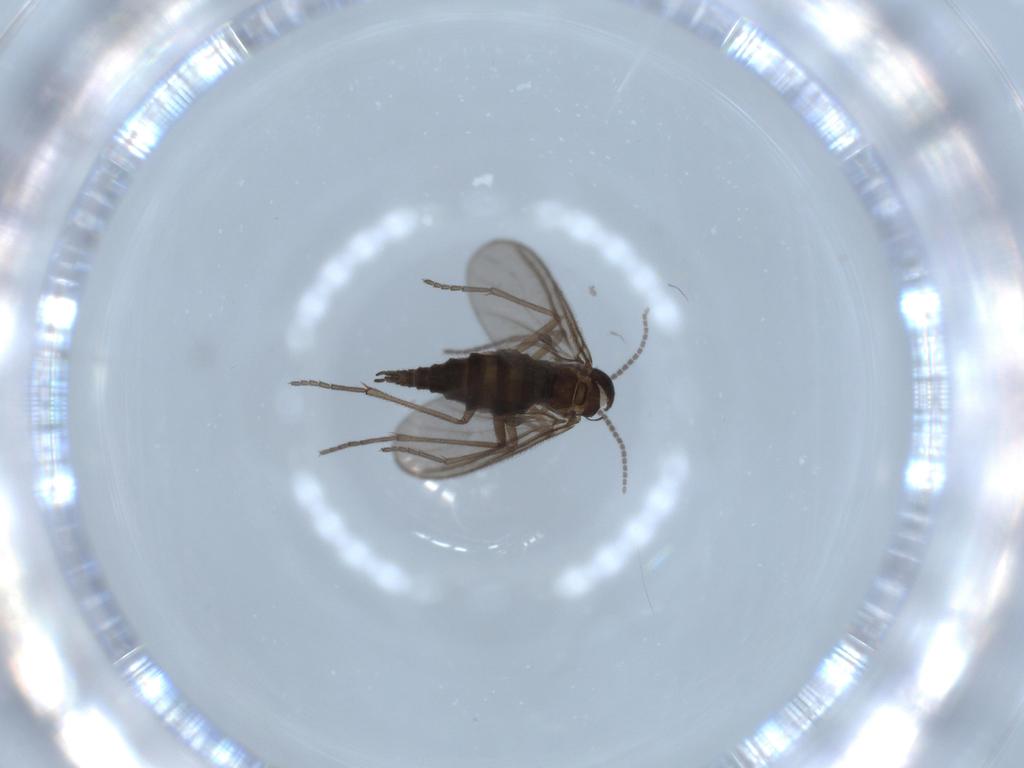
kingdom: Animalia
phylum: Arthropoda
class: Insecta
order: Diptera
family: Sciaridae
